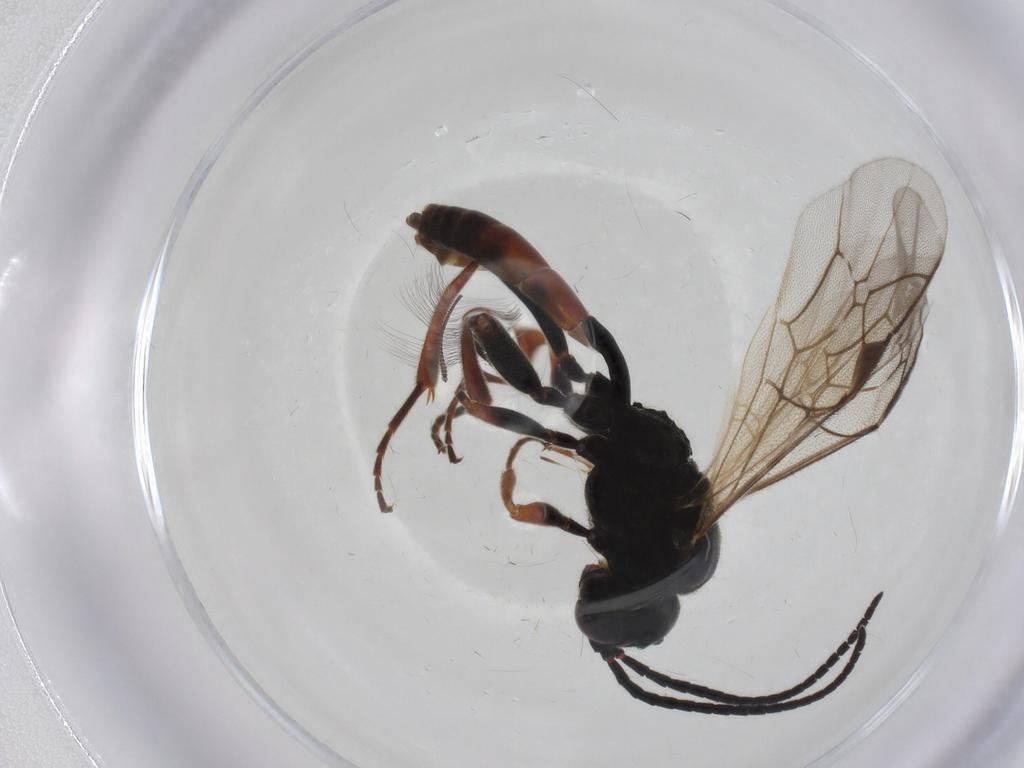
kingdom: Animalia
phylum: Arthropoda
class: Insecta
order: Hymenoptera
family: Ichneumonidae
